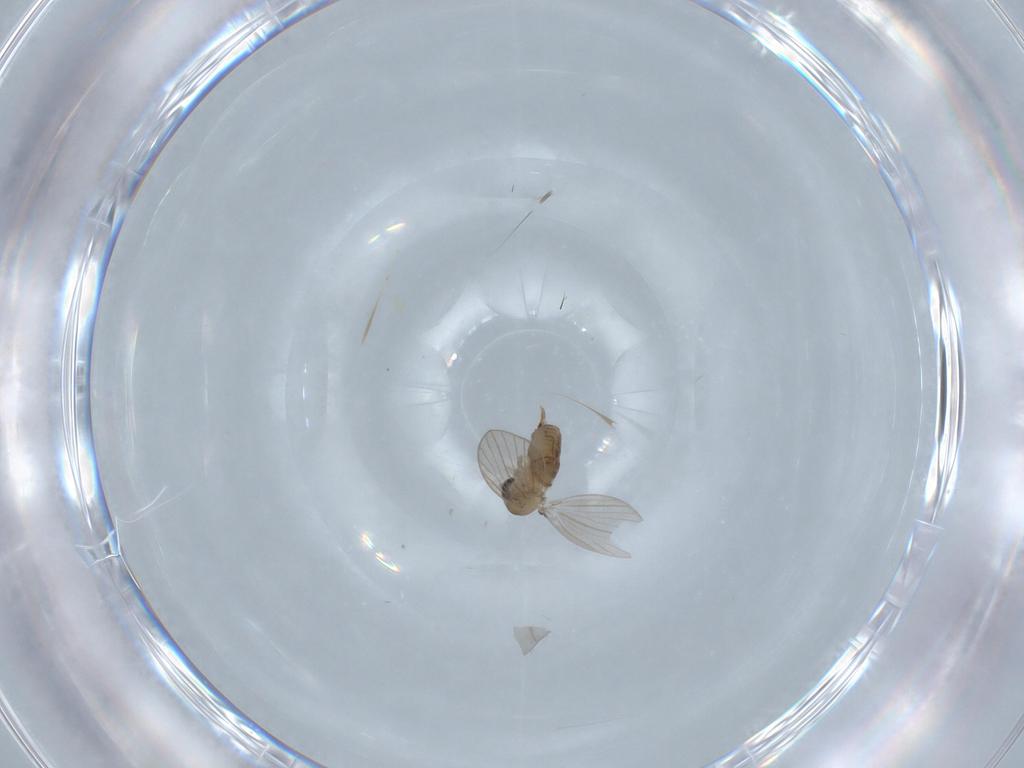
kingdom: Animalia
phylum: Arthropoda
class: Insecta
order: Diptera
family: Psychodidae
